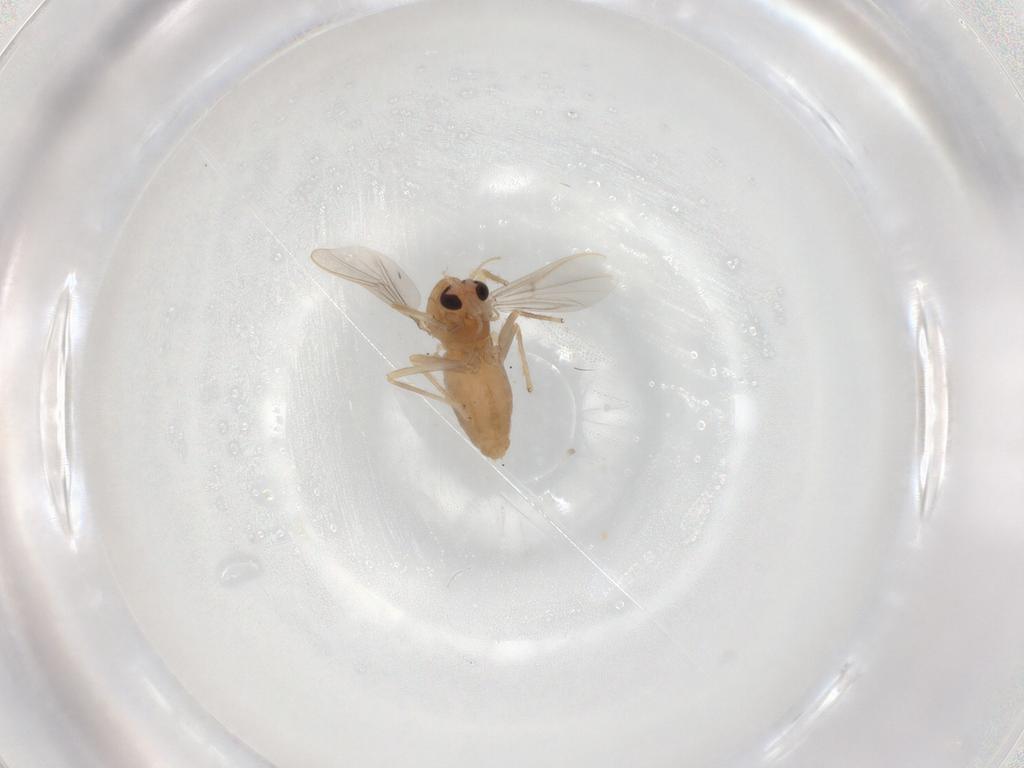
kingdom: Animalia
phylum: Arthropoda
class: Insecta
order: Diptera
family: Chironomidae
